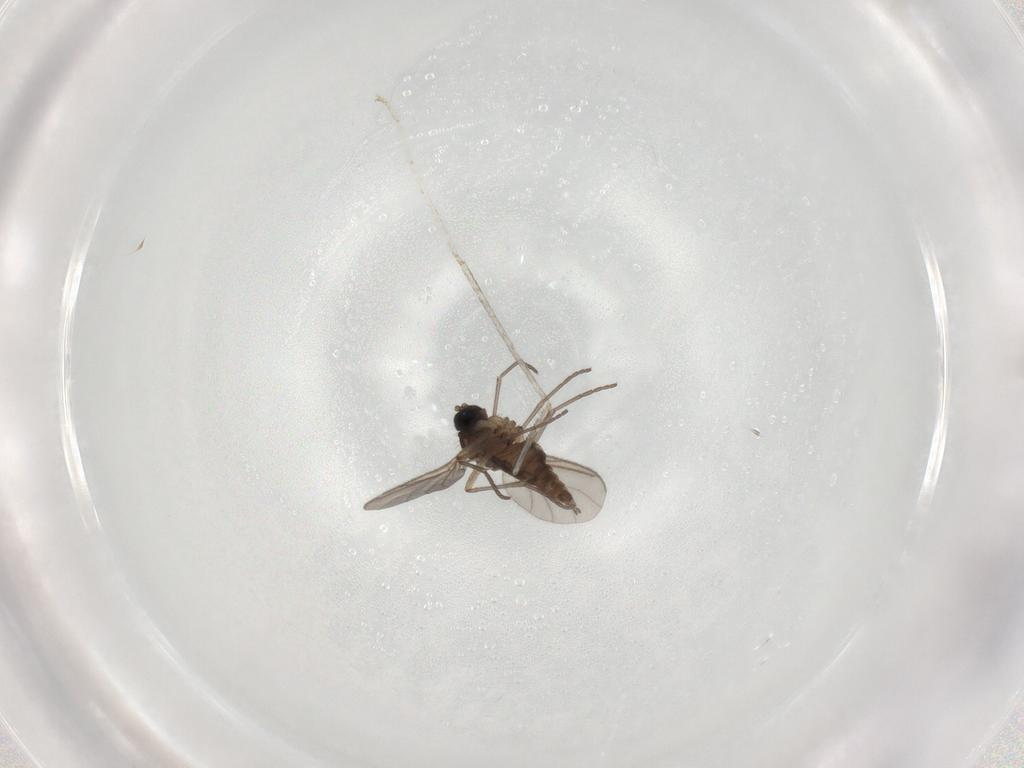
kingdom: Animalia
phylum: Arthropoda
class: Insecta
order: Diptera
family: Sciaridae
